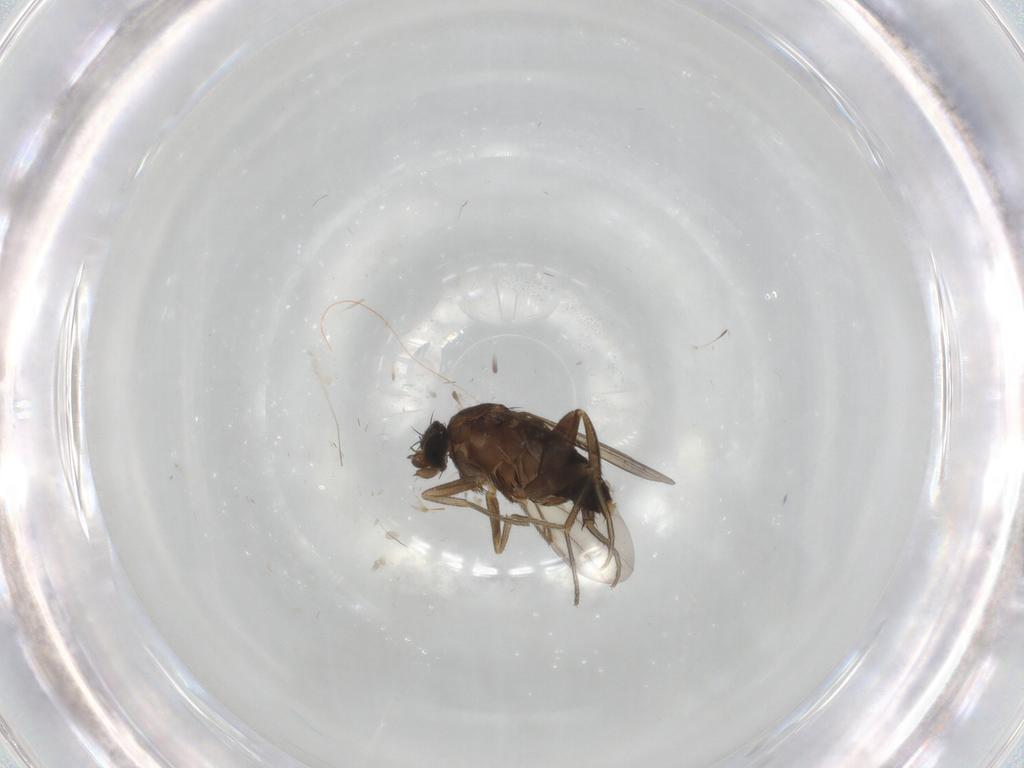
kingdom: Animalia
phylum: Arthropoda
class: Insecta
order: Diptera
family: Phoridae
